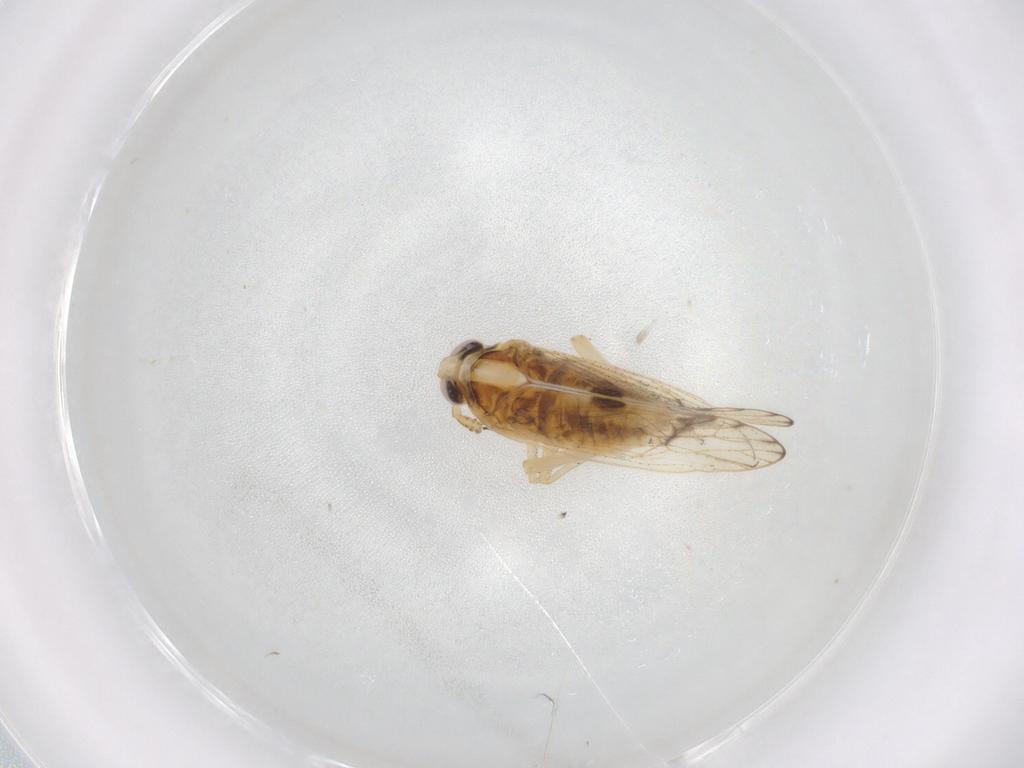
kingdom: Animalia
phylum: Arthropoda
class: Insecta
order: Hemiptera
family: Delphacidae
